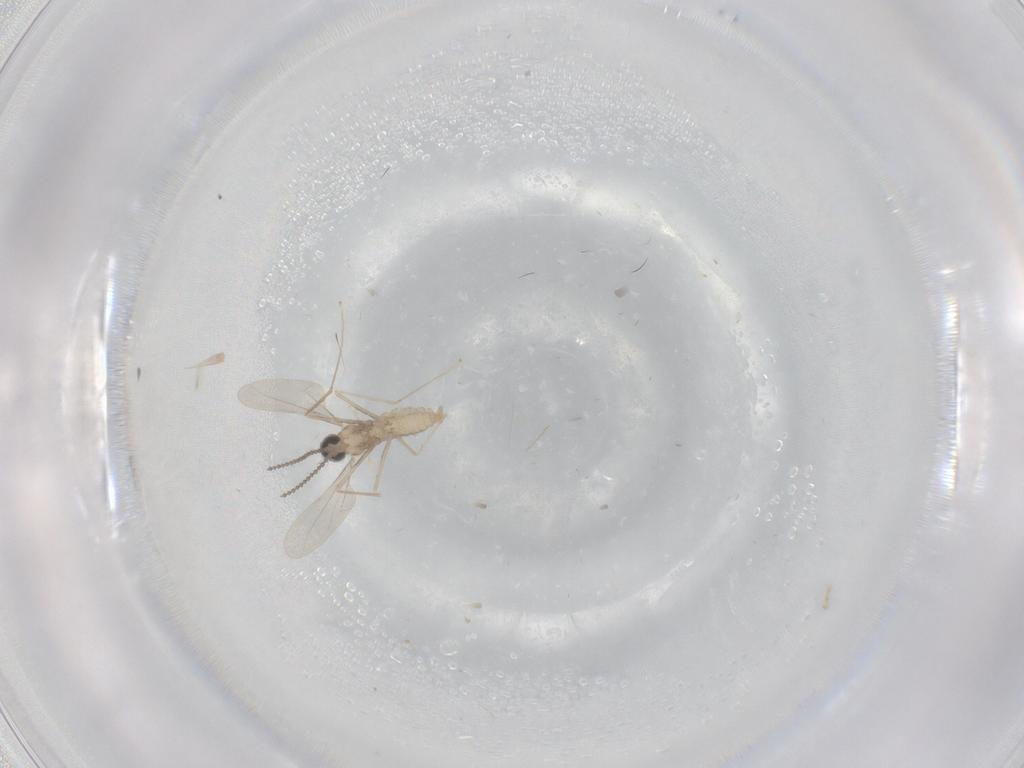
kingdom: Animalia
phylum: Arthropoda
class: Insecta
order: Diptera
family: Cecidomyiidae
